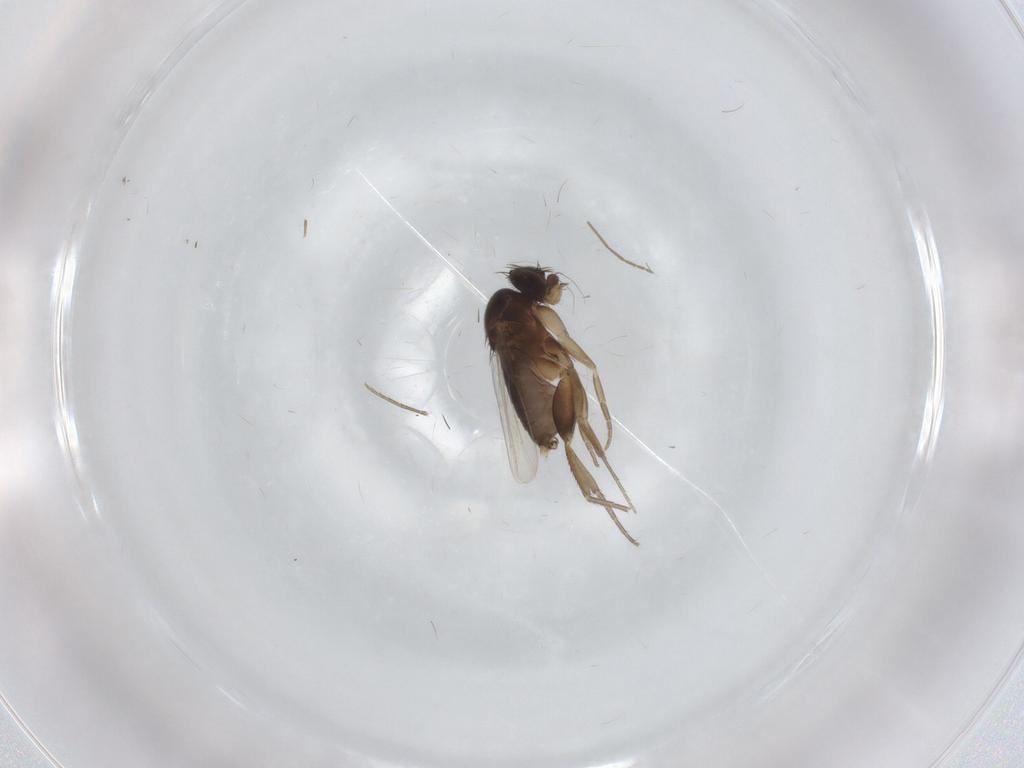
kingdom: Animalia
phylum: Arthropoda
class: Insecta
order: Diptera
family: Phoridae
